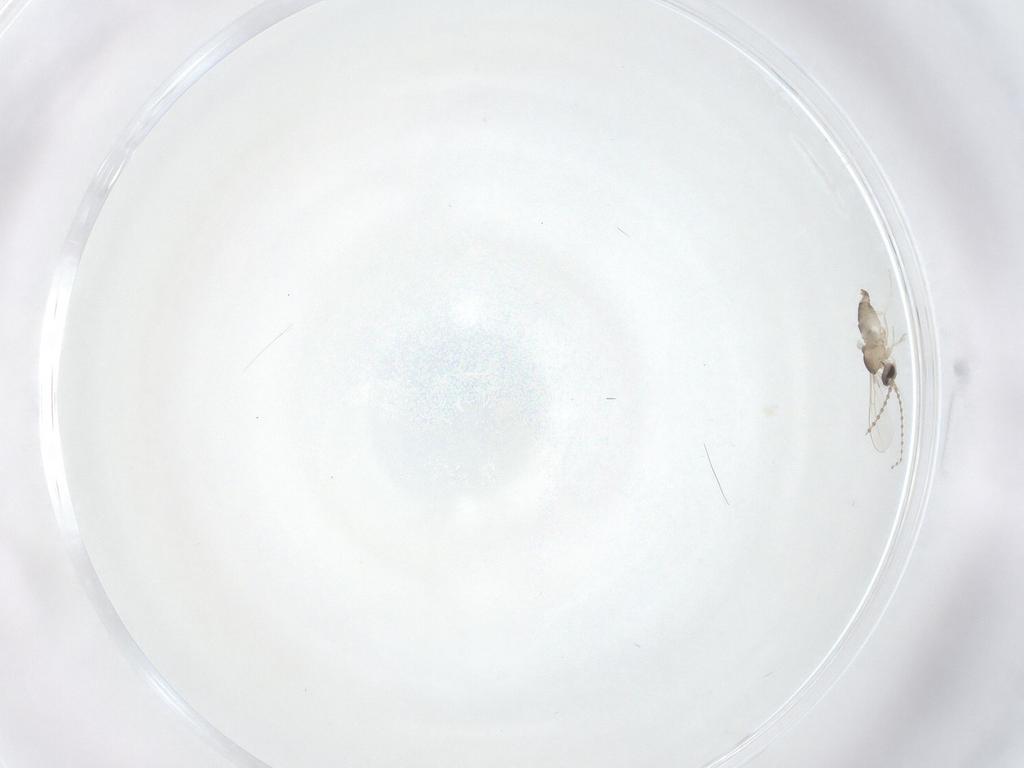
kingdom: Animalia
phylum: Arthropoda
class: Insecta
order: Diptera
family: Cecidomyiidae
